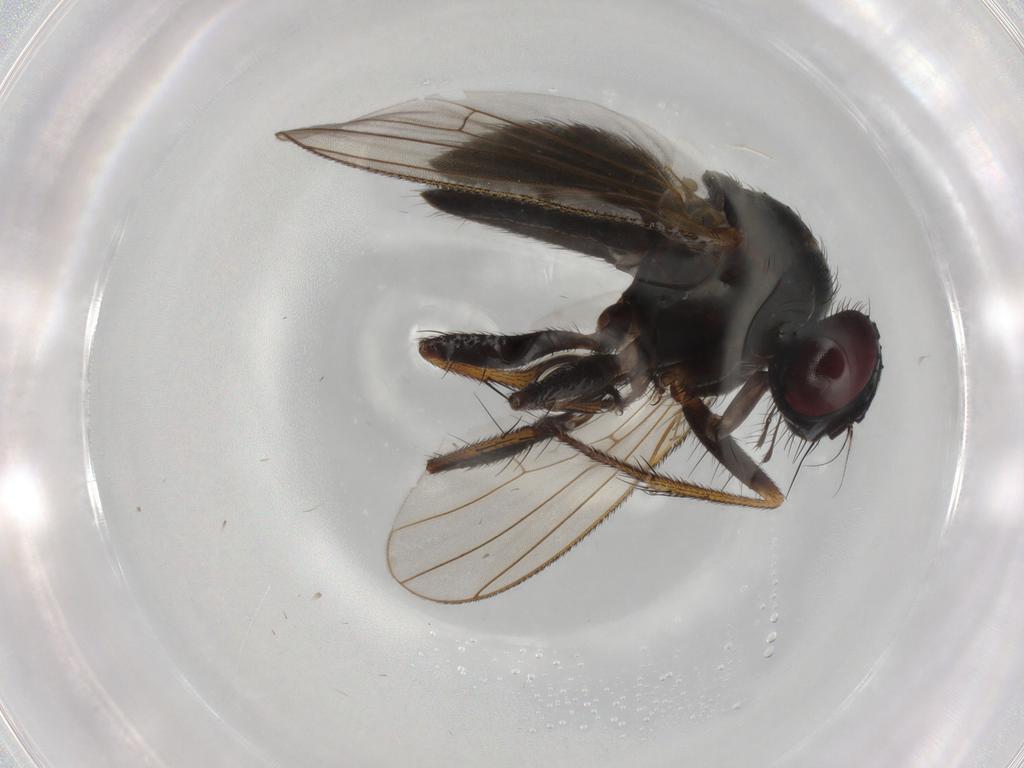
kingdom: Animalia
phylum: Arthropoda
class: Insecta
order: Diptera
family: Muscidae
